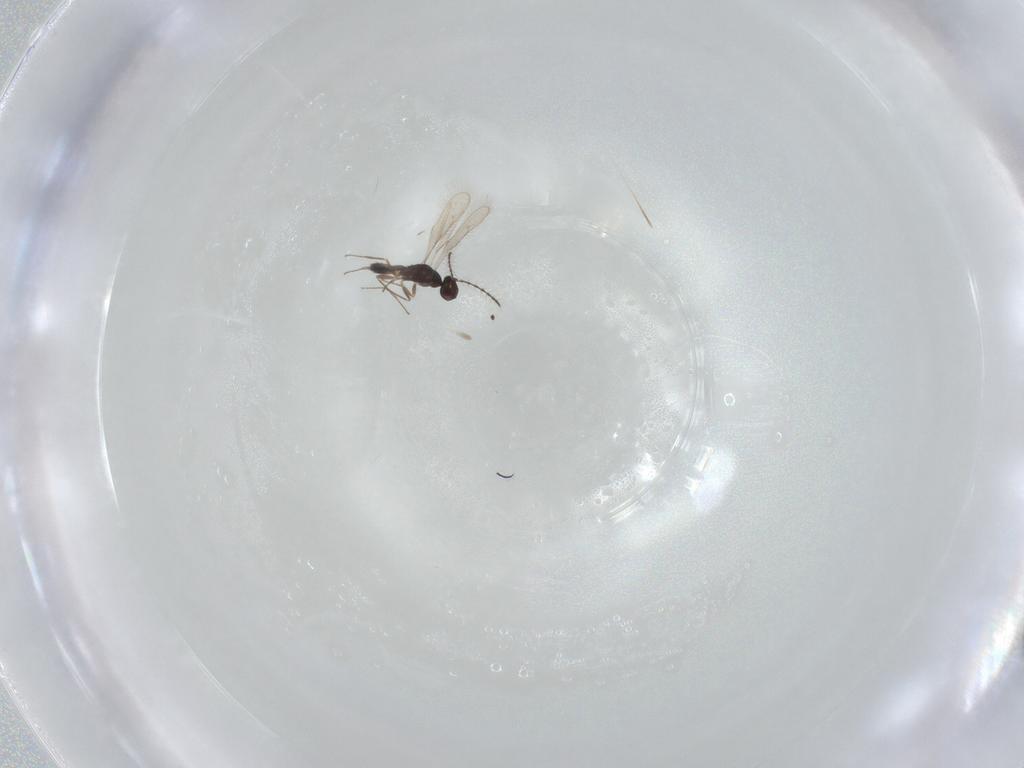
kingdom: Animalia
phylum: Arthropoda
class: Insecta
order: Hymenoptera
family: Pteromalidae
